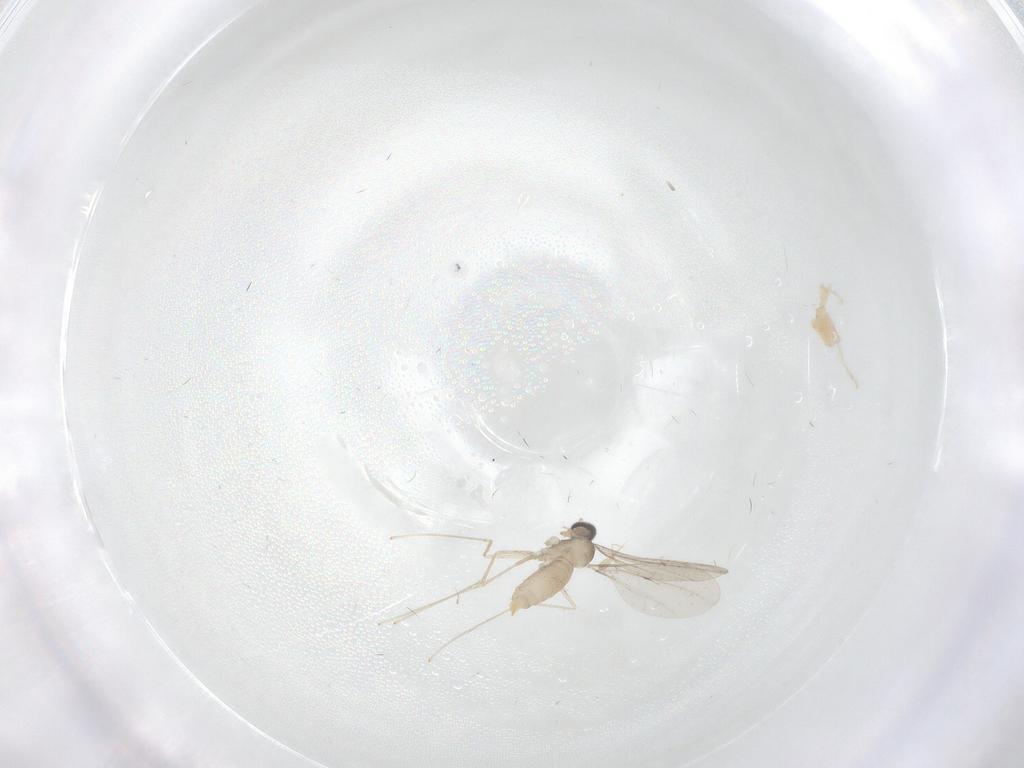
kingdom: Animalia
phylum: Arthropoda
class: Insecta
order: Diptera
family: Cecidomyiidae
